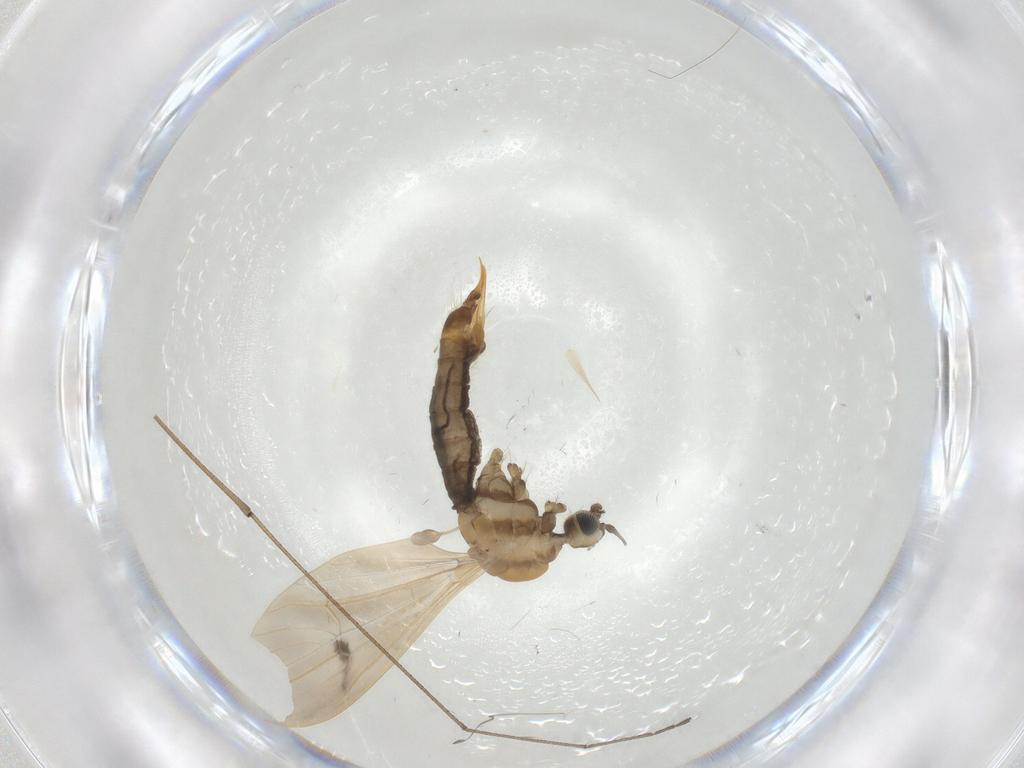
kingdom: Animalia
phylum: Arthropoda
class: Insecta
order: Diptera
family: Limoniidae
